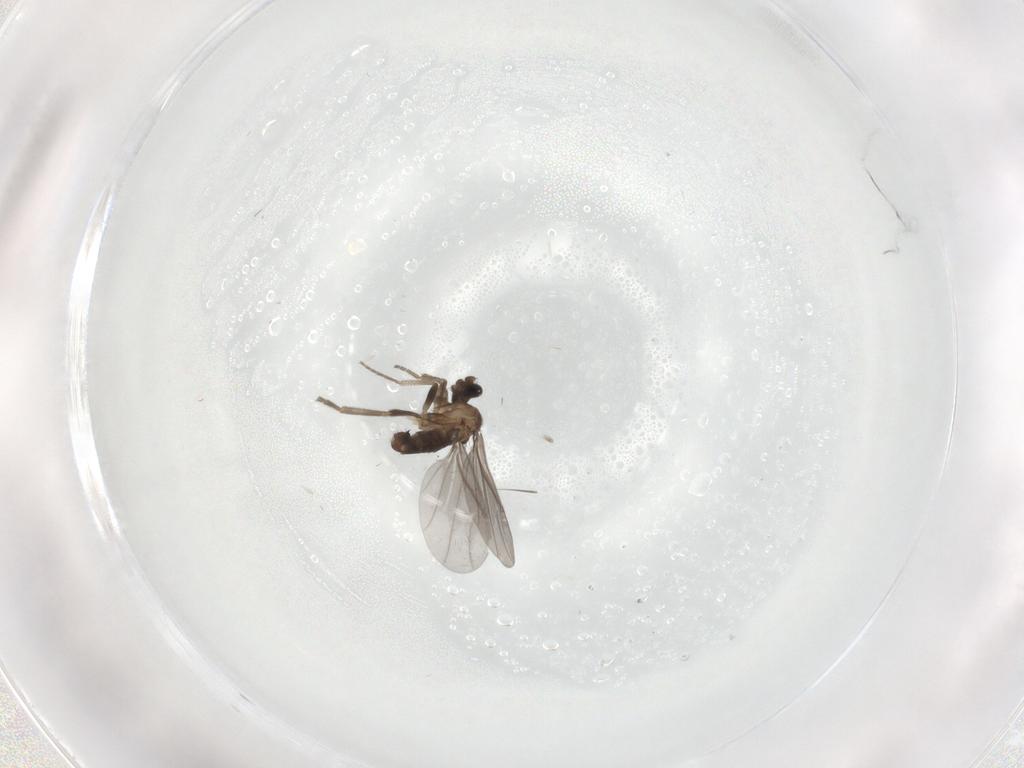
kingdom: Animalia
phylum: Arthropoda
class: Insecta
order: Diptera
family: Phoridae
